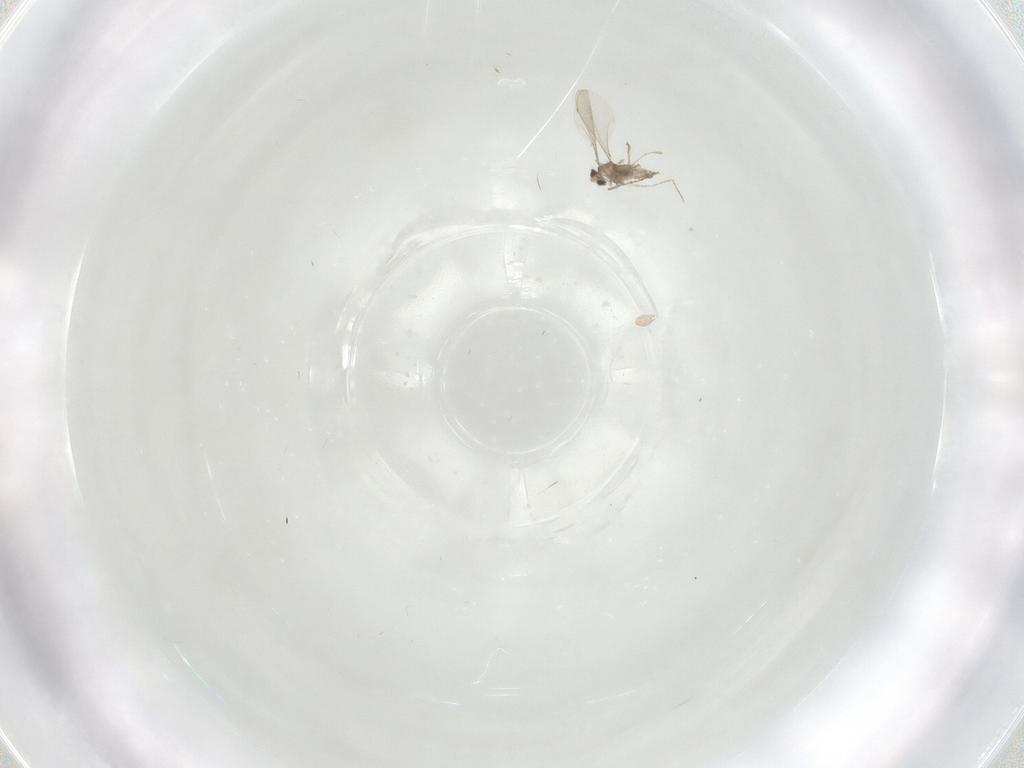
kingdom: Animalia
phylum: Arthropoda
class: Insecta
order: Diptera
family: Cecidomyiidae
